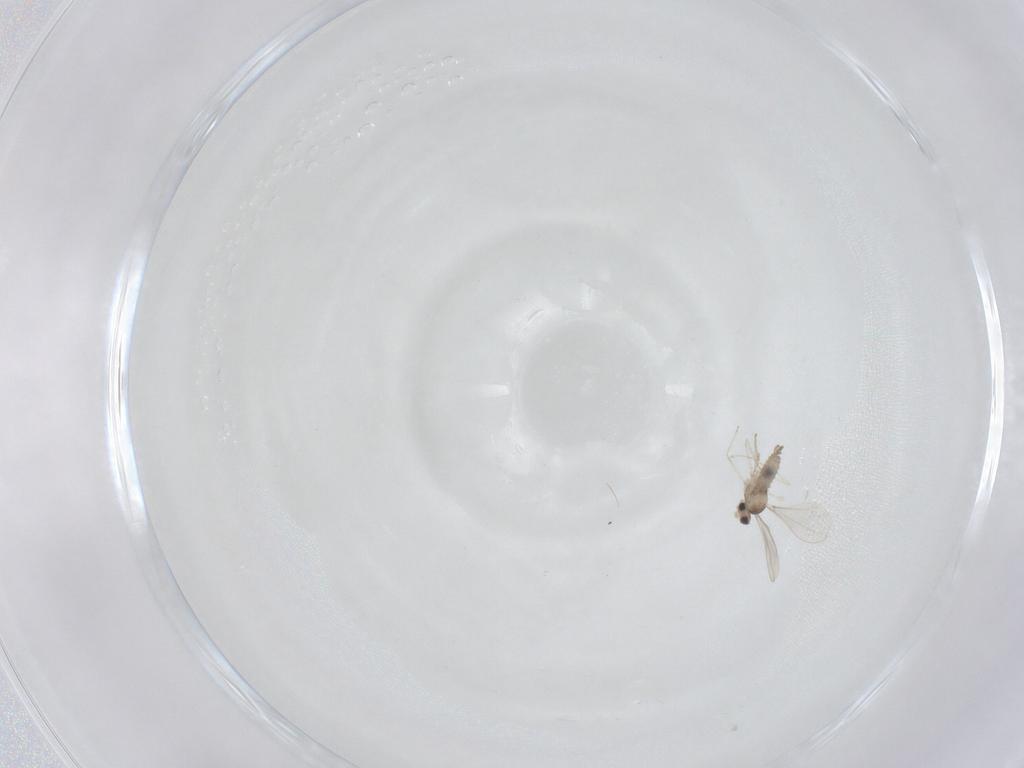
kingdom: Animalia
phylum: Arthropoda
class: Insecta
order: Diptera
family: Cecidomyiidae
